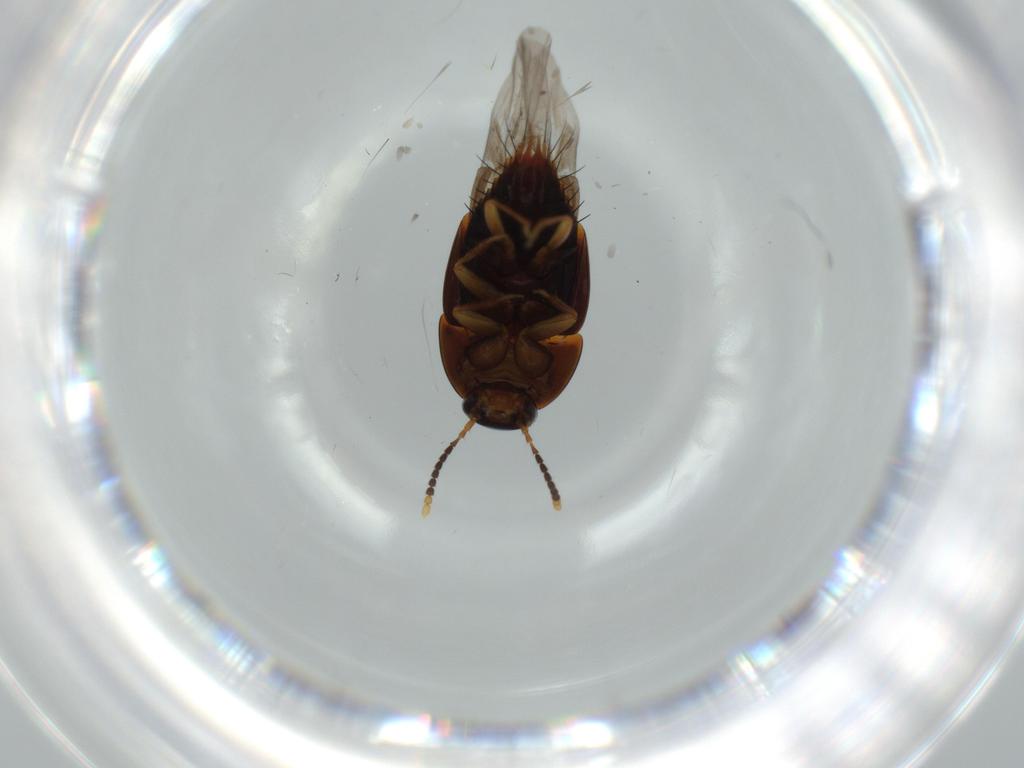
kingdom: Animalia
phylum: Arthropoda
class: Insecta
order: Coleoptera
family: Staphylinidae
